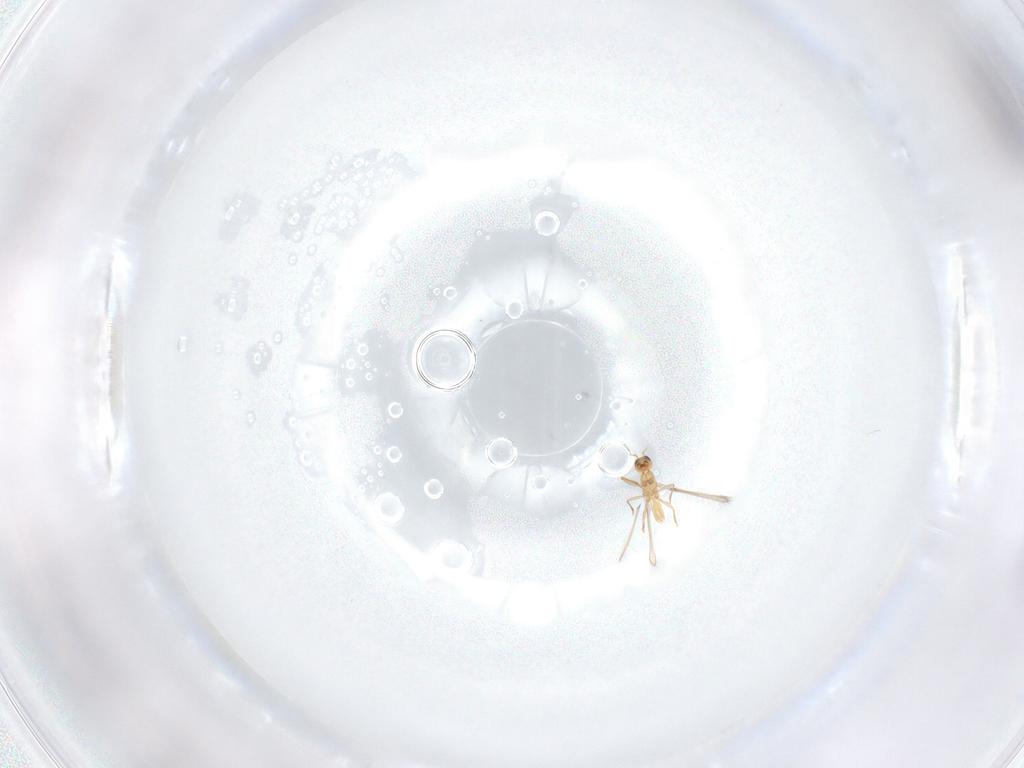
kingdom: Animalia
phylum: Arthropoda
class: Insecta
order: Hymenoptera
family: Mymaridae
